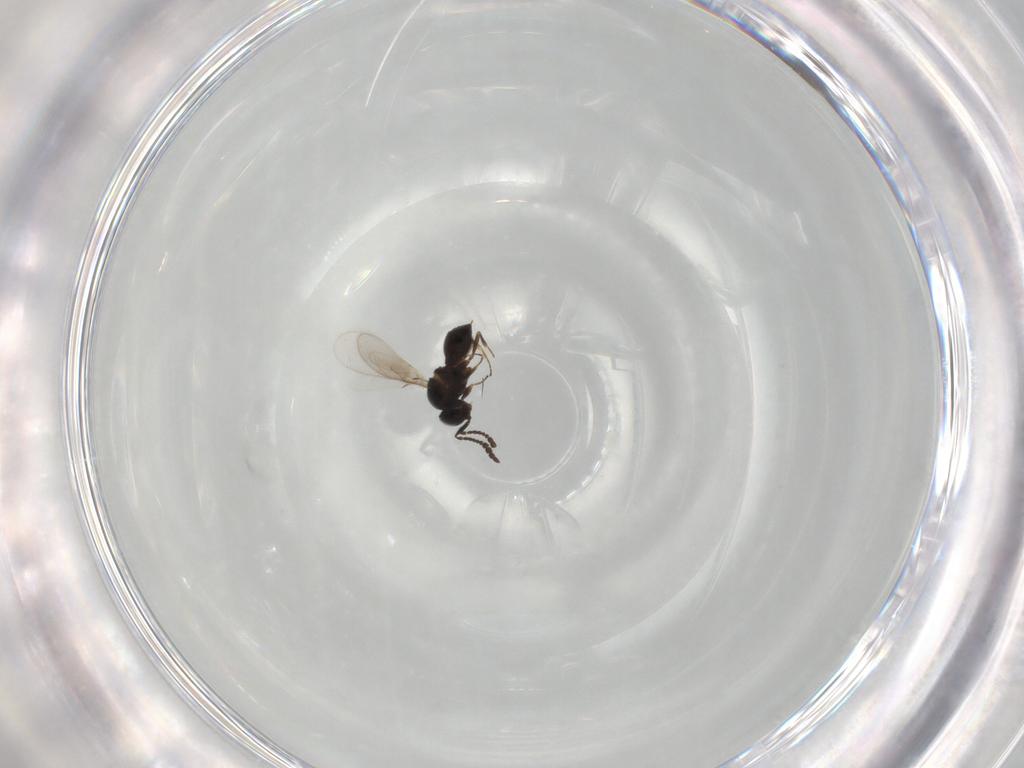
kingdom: Animalia
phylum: Arthropoda
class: Insecta
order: Hymenoptera
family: Scelionidae
